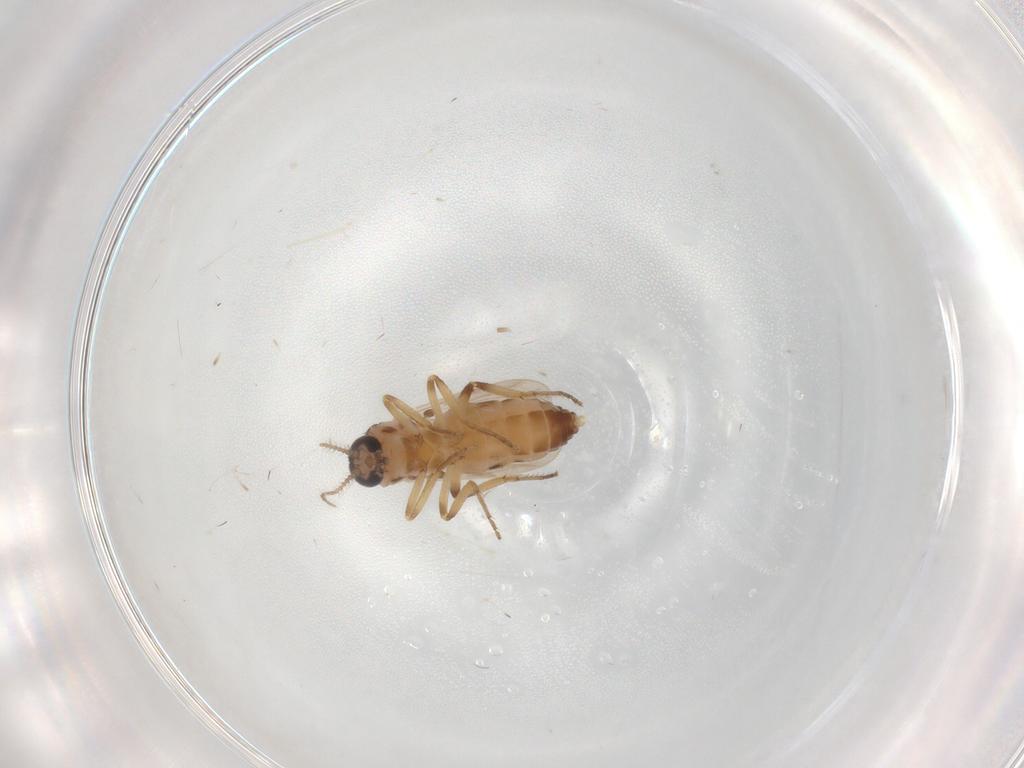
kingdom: Animalia
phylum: Arthropoda
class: Insecta
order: Diptera
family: Ceratopogonidae
